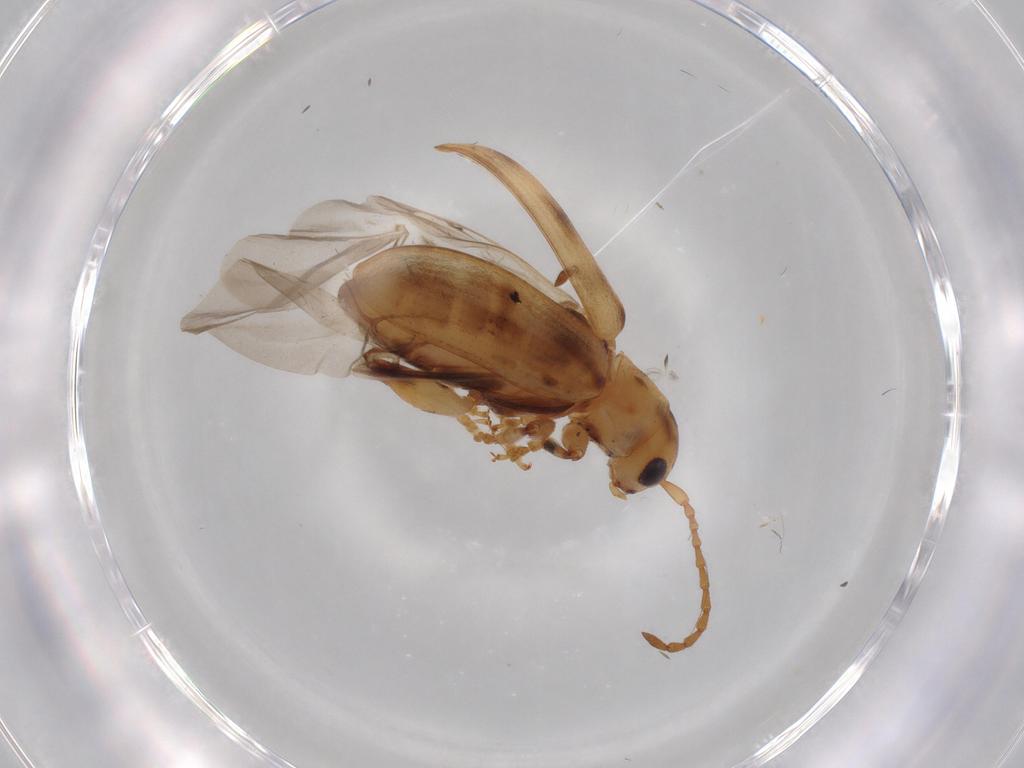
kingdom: Animalia
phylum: Arthropoda
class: Insecta
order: Coleoptera
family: Chrysomelidae
